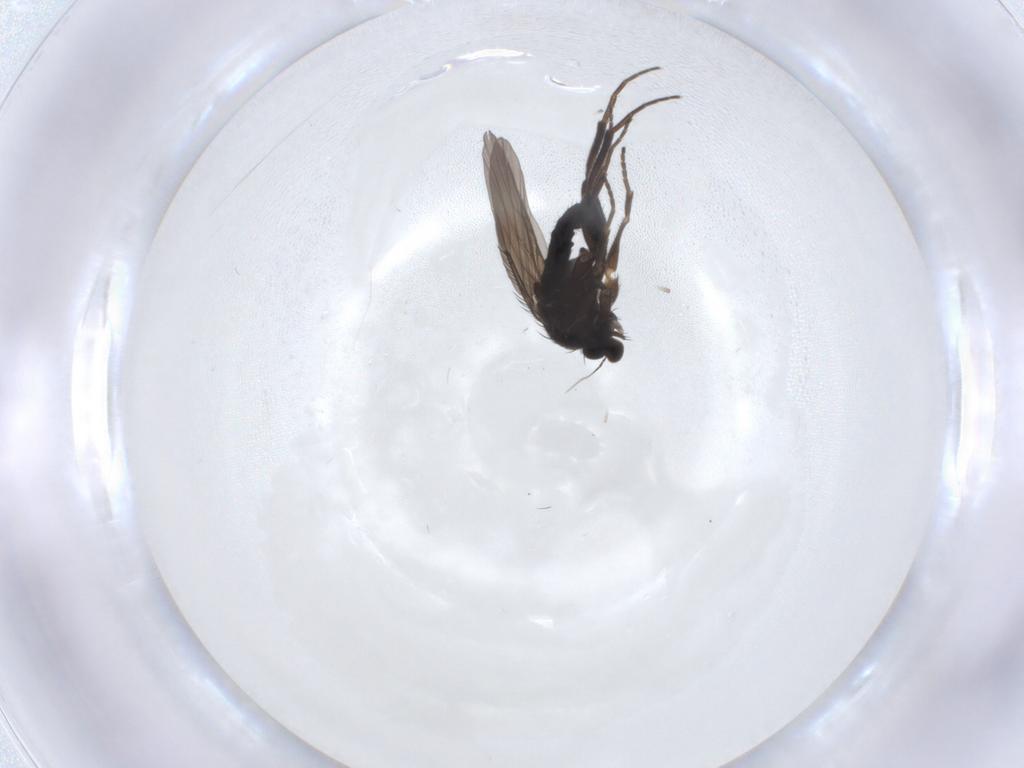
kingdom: Animalia
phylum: Arthropoda
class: Insecta
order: Diptera
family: Phoridae
